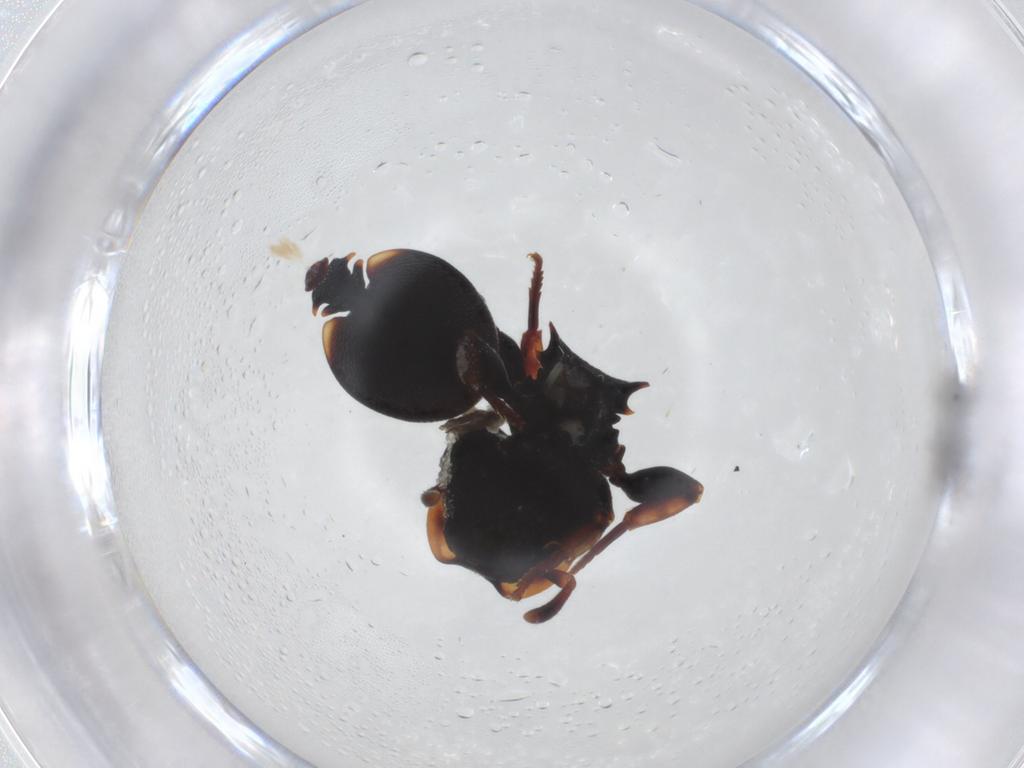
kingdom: Animalia
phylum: Arthropoda
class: Insecta
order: Hymenoptera
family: Formicidae
